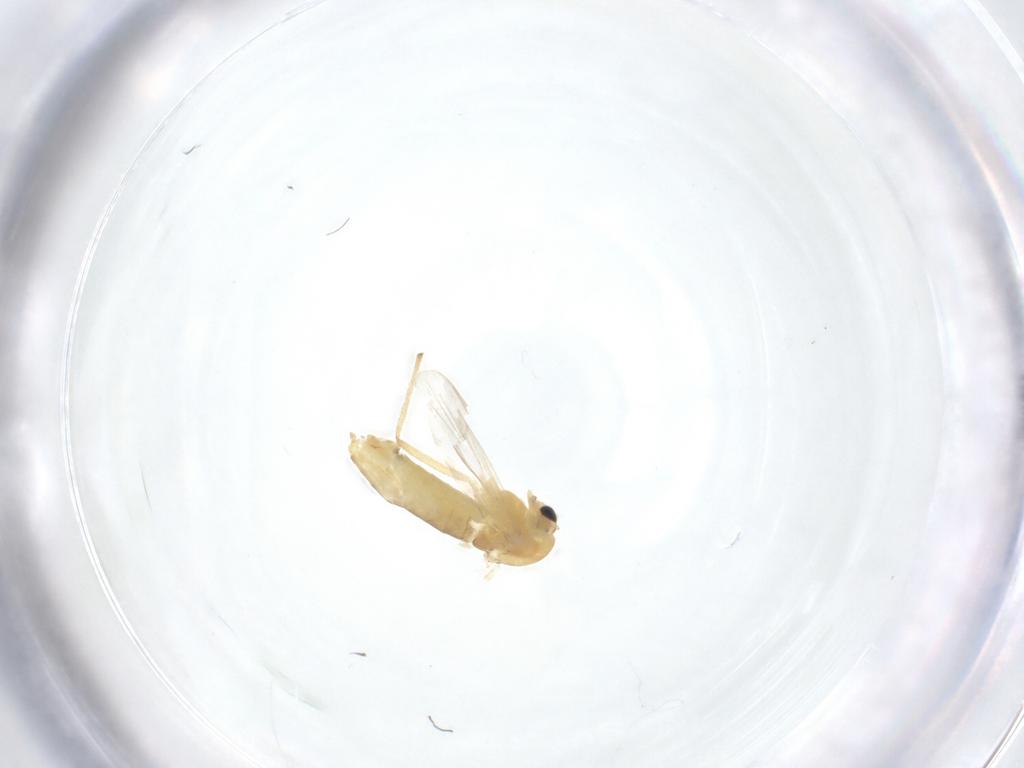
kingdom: Animalia
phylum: Arthropoda
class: Insecta
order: Diptera
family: Chironomidae
